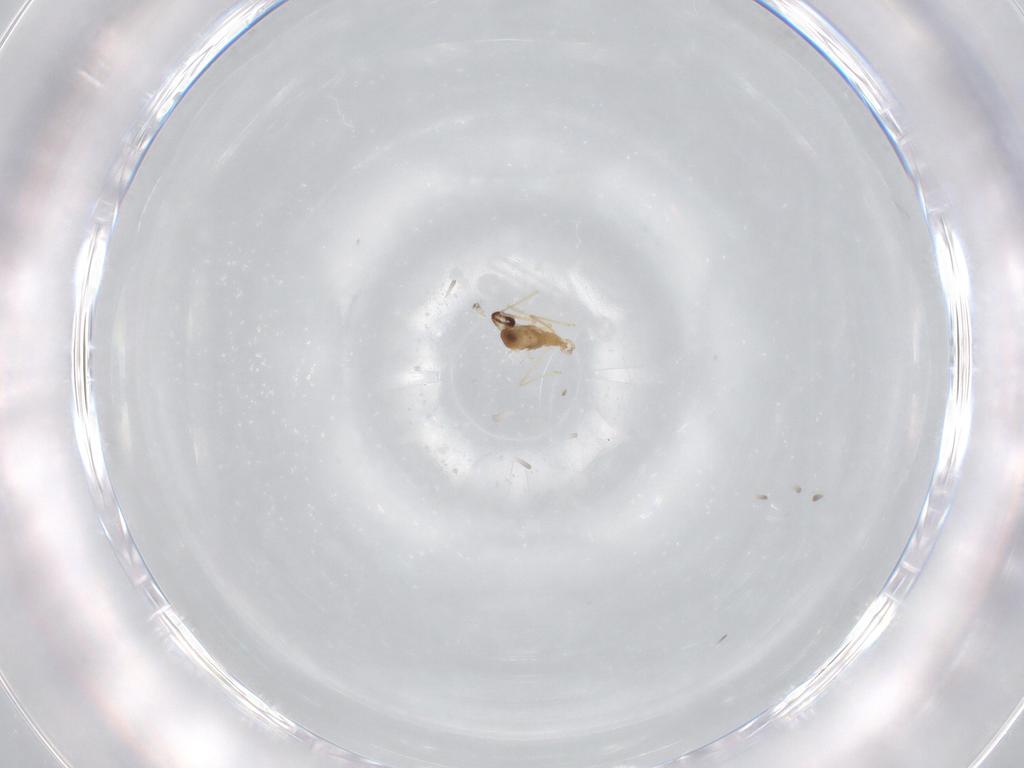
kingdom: Animalia
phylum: Arthropoda
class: Insecta
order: Diptera
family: Cecidomyiidae
